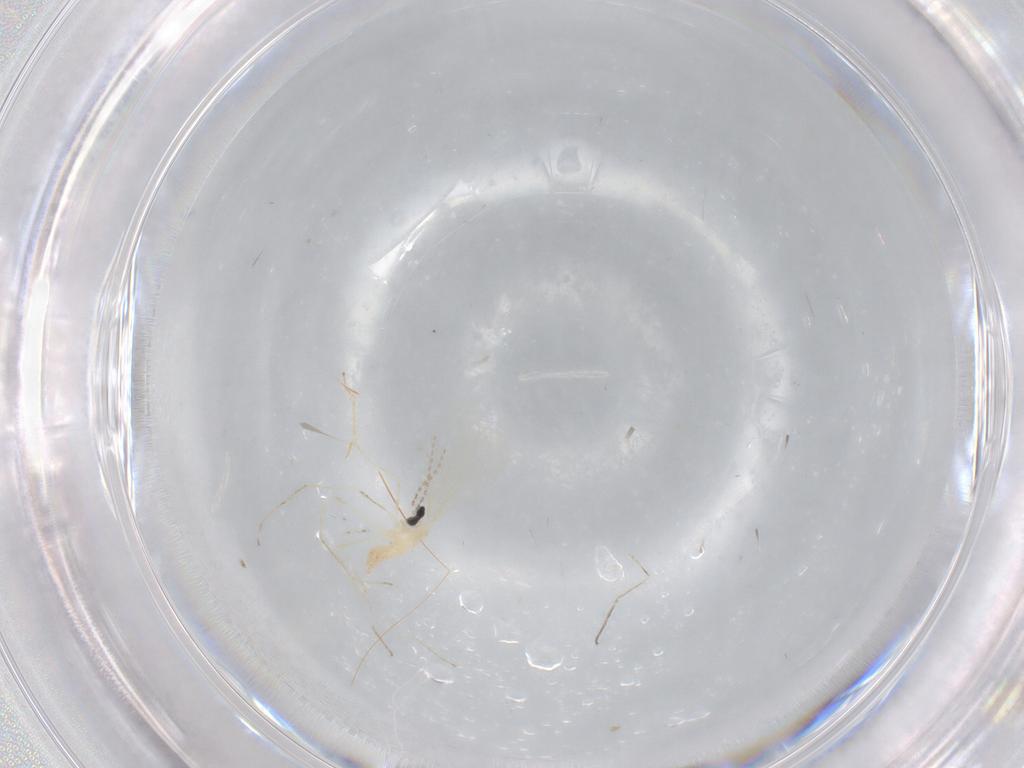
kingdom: Animalia
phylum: Arthropoda
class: Insecta
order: Diptera
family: Cecidomyiidae
